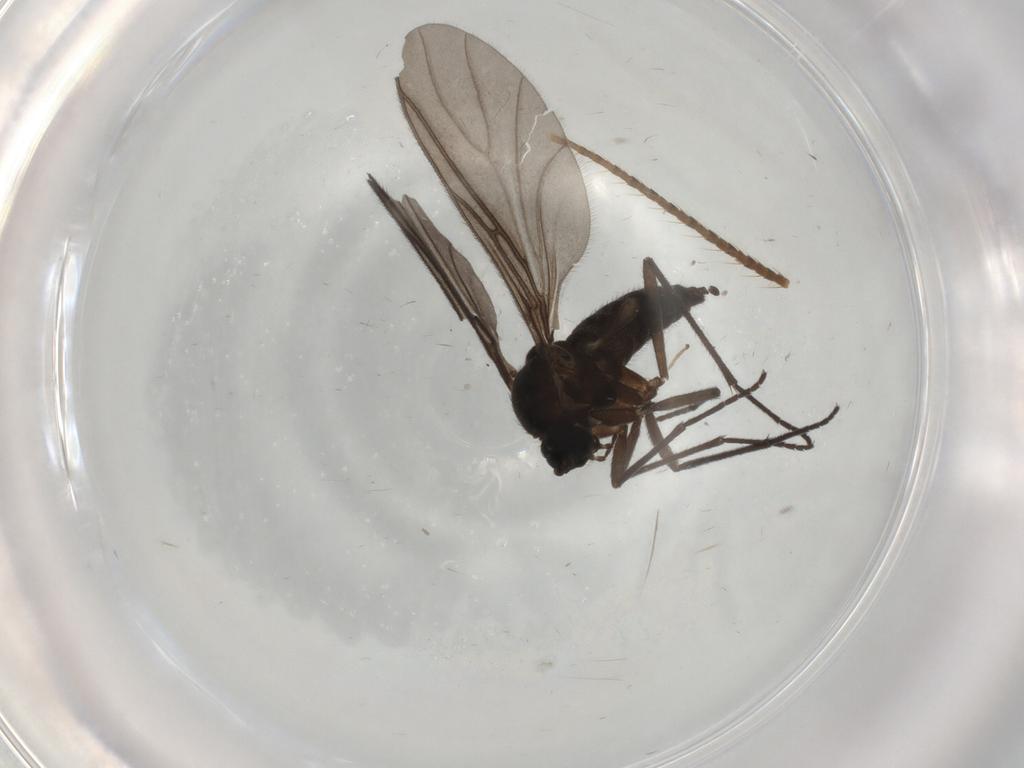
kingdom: Animalia
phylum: Arthropoda
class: Insecta
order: Diptera
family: Sciaridae
